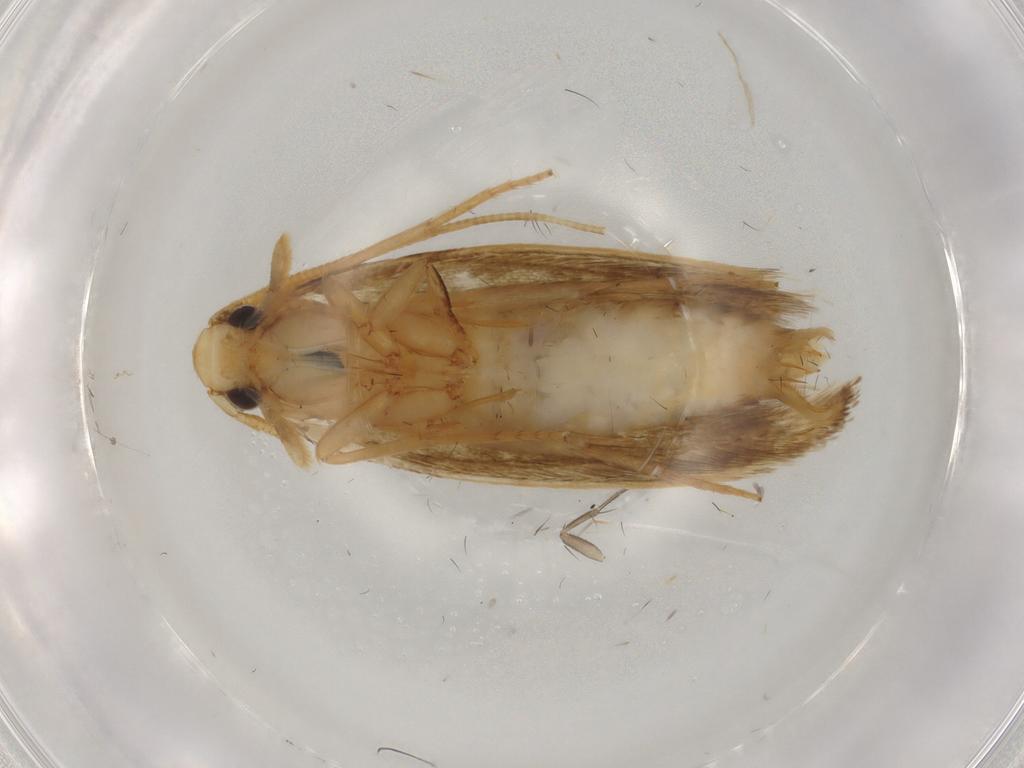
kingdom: Animalia
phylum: Arthropoda
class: Insecta
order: Lepidoptera
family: Tineidae
